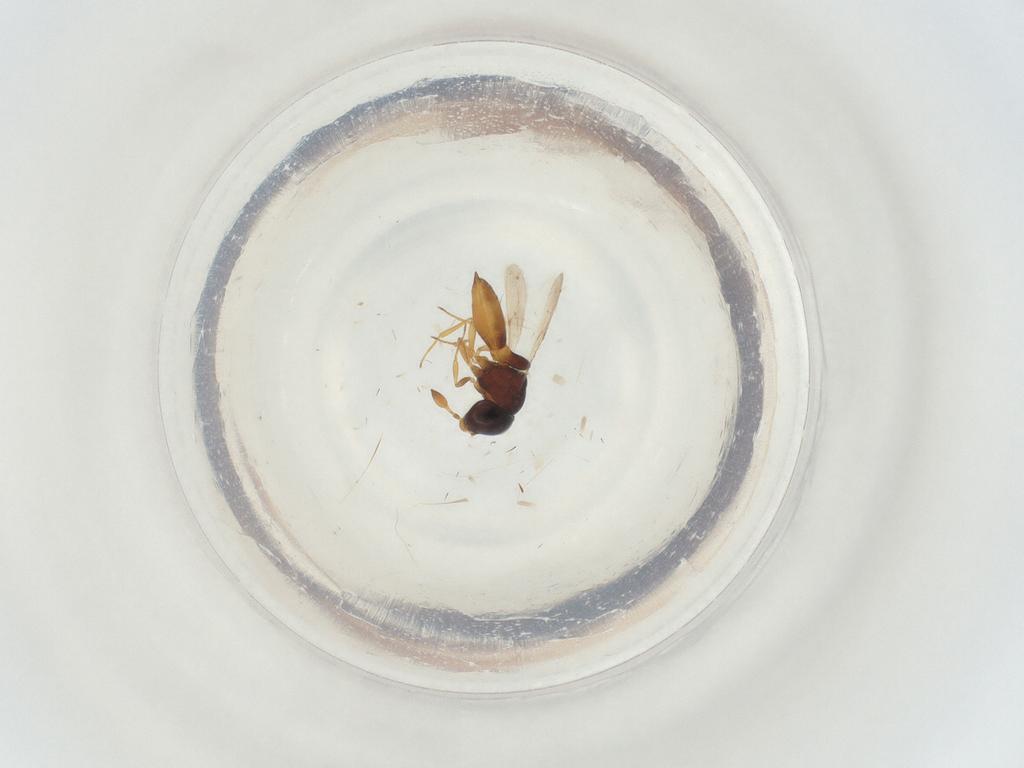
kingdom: Animalia
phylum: Arthropoda
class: Insecta
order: Hymenoptera
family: Scelionidae
